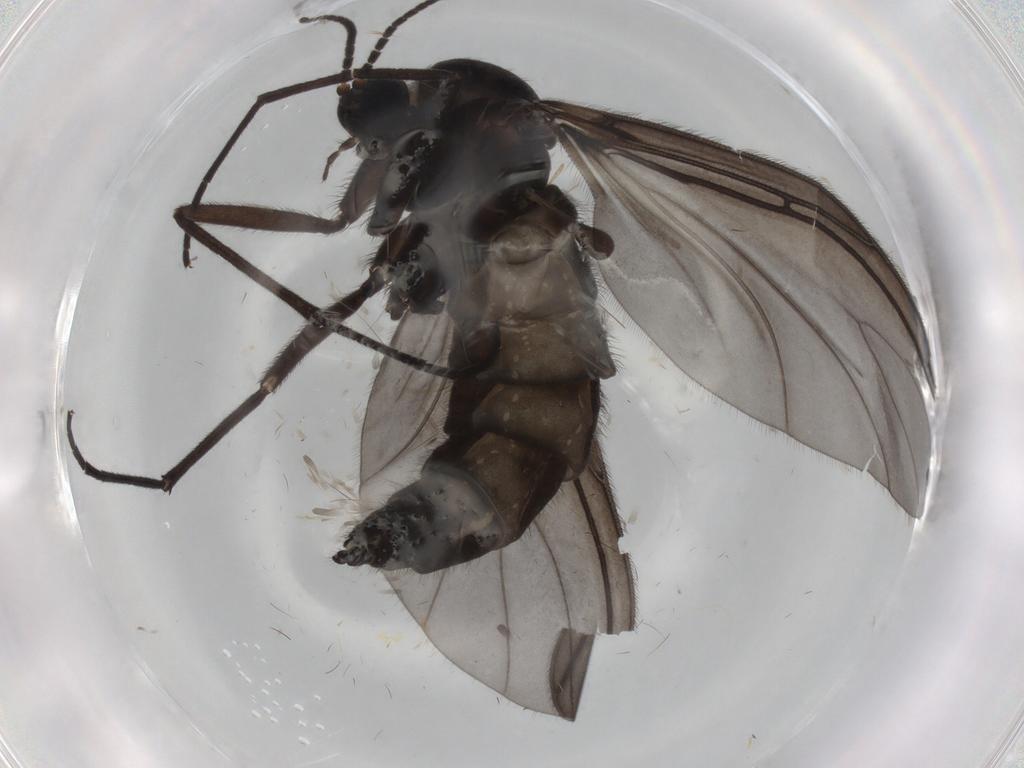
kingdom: Animalia
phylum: Arthropoda
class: Insecta
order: Diptera
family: Sciaridae
